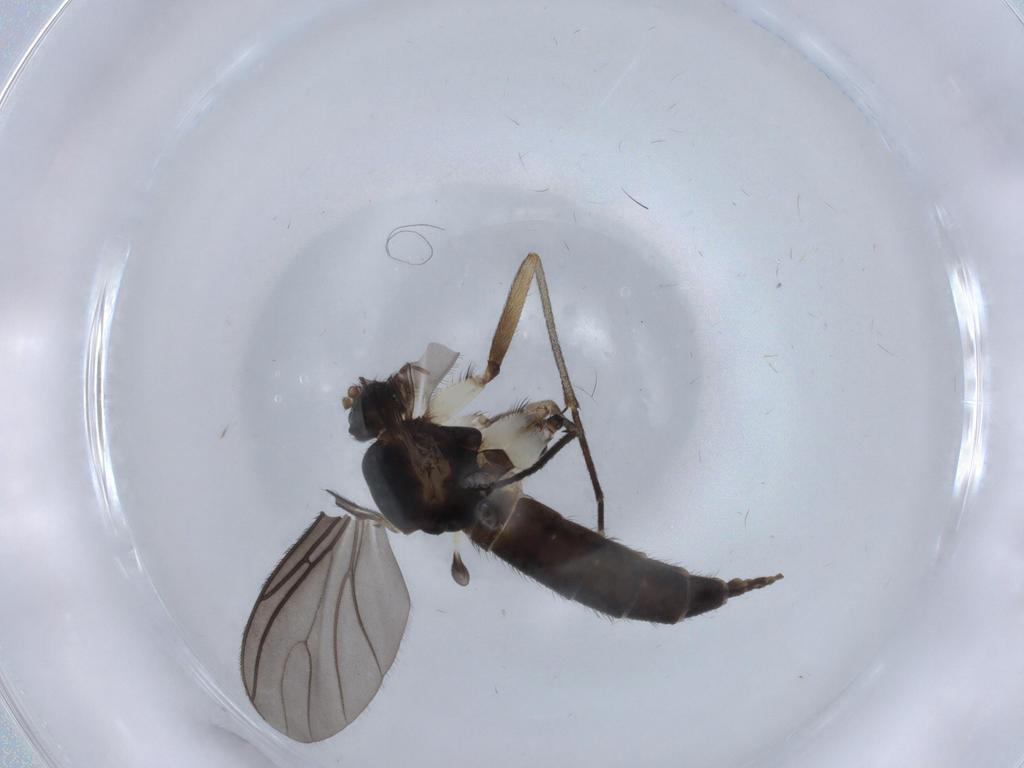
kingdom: Animalia
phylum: Arthropoda
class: Insecta
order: Diptera
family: Sciaridae
